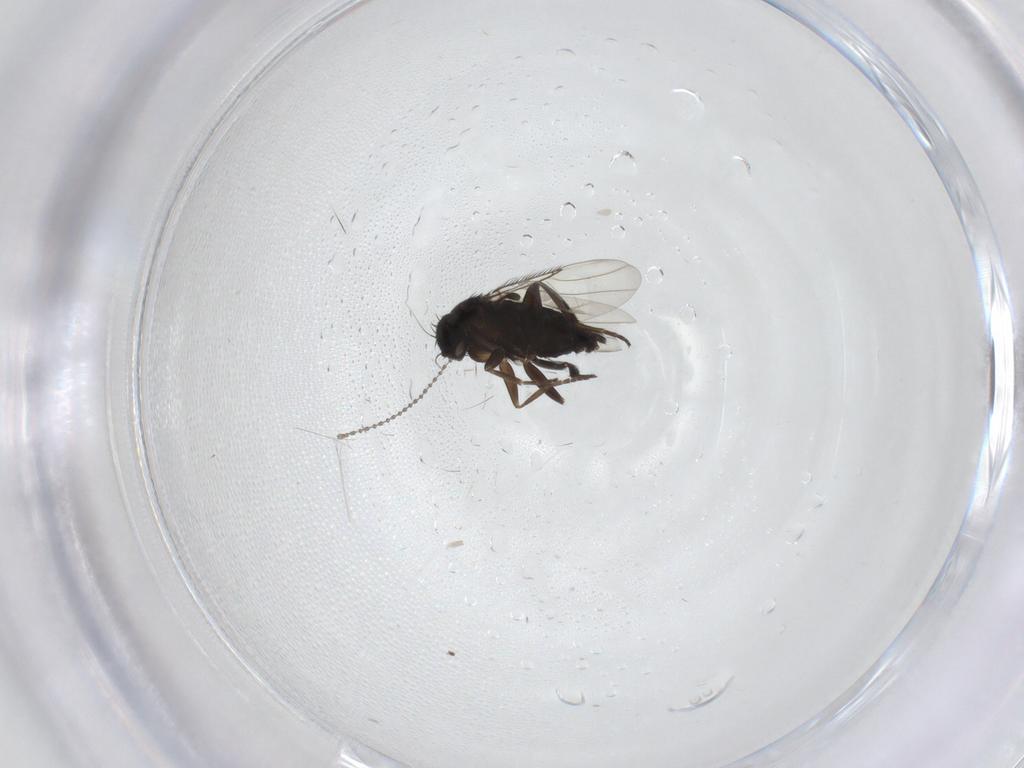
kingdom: Animalia
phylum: Arthropoda
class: Insecta
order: Diptera
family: Phoridae
